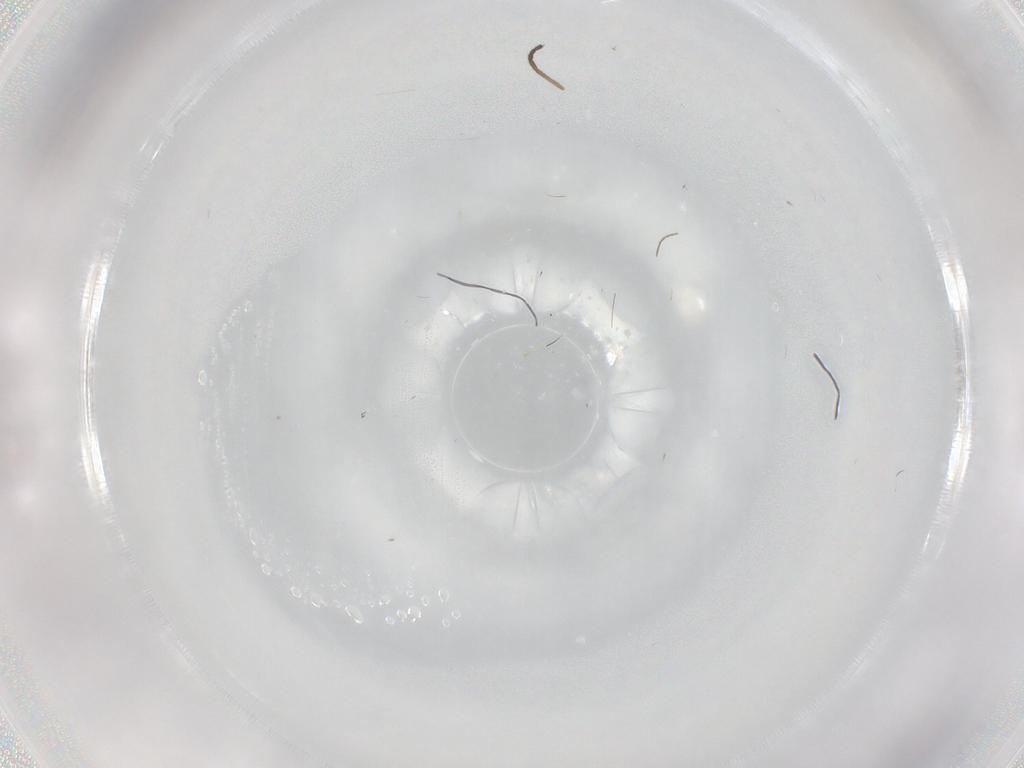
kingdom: Animalia
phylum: Arthropoda
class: Insecta
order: Diptera
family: Cecidomyiidae
